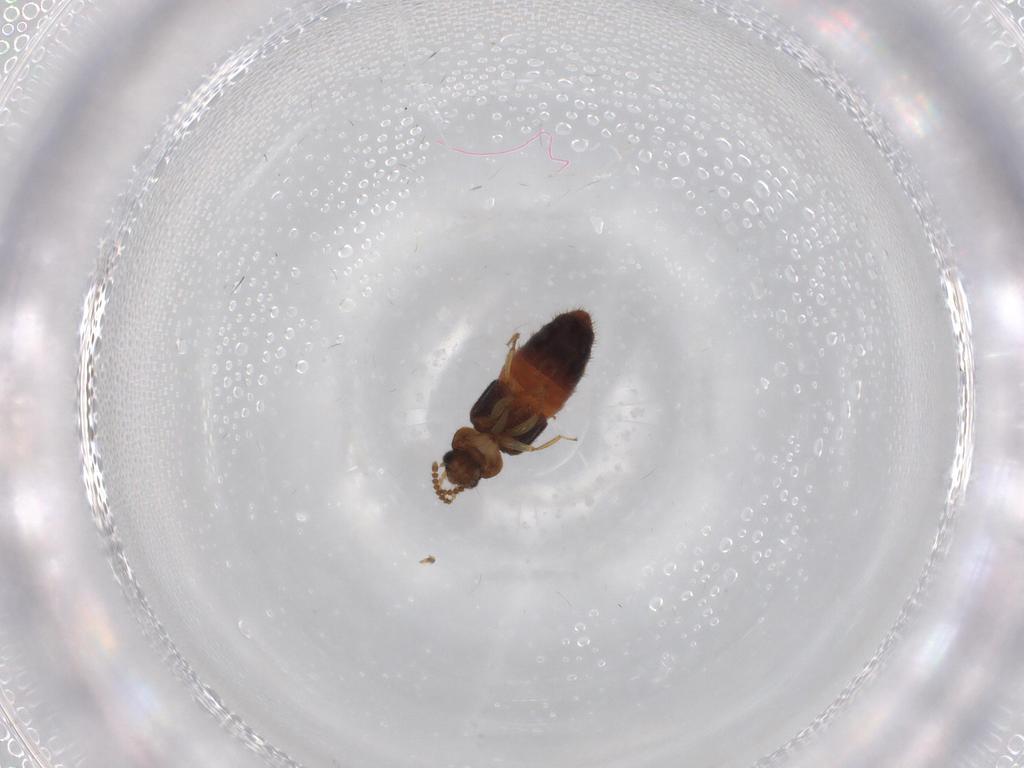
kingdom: Animalia
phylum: Arthropoda
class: Insecta
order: Coleoptera
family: Staphylinidae
